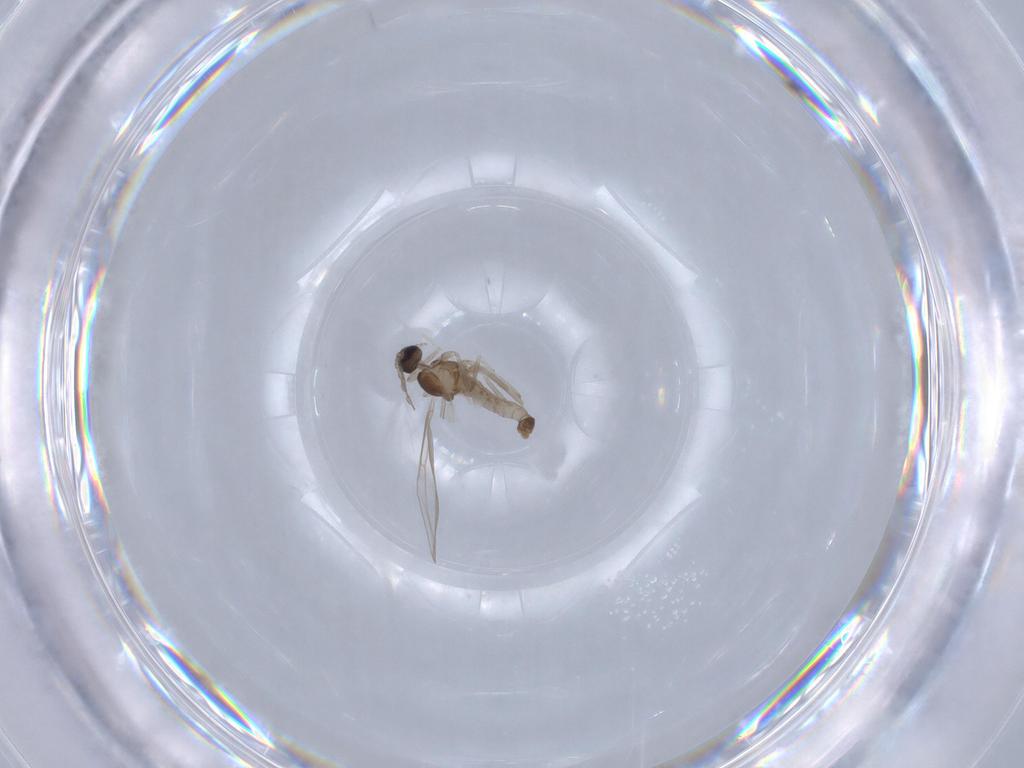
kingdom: Animalia
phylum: Arthropoda
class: Insecta
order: Diptera
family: Cecidomyiidae
